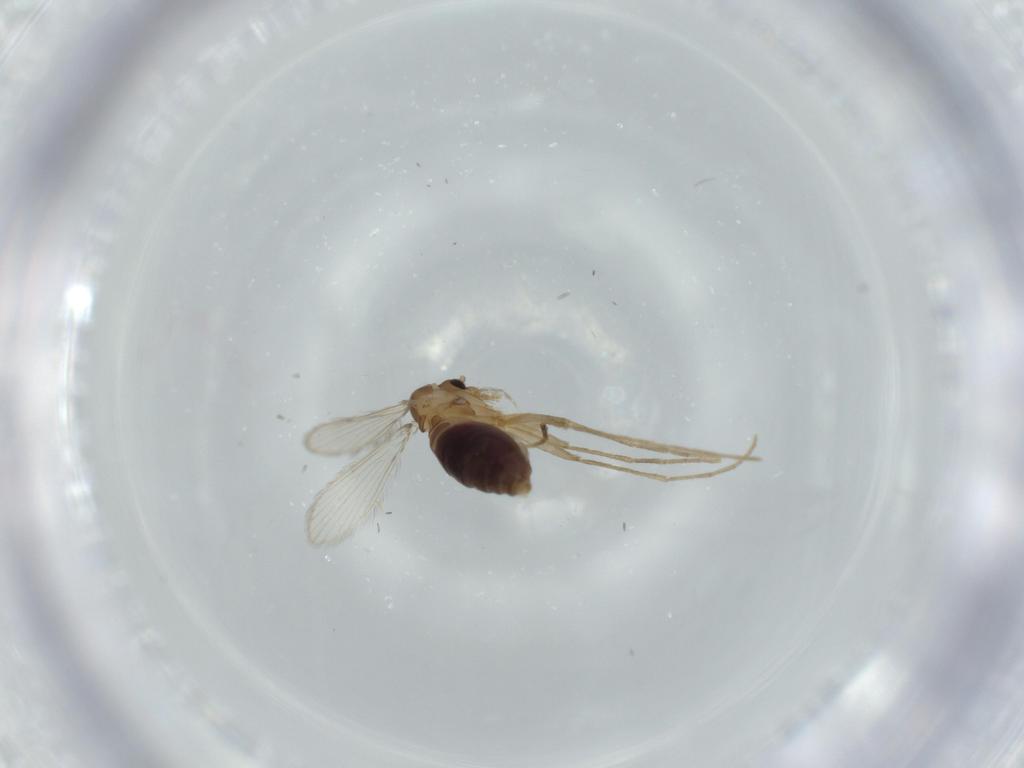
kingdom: Animalia
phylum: Arthropoda
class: Insecta
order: Diptera
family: Psychodidae
